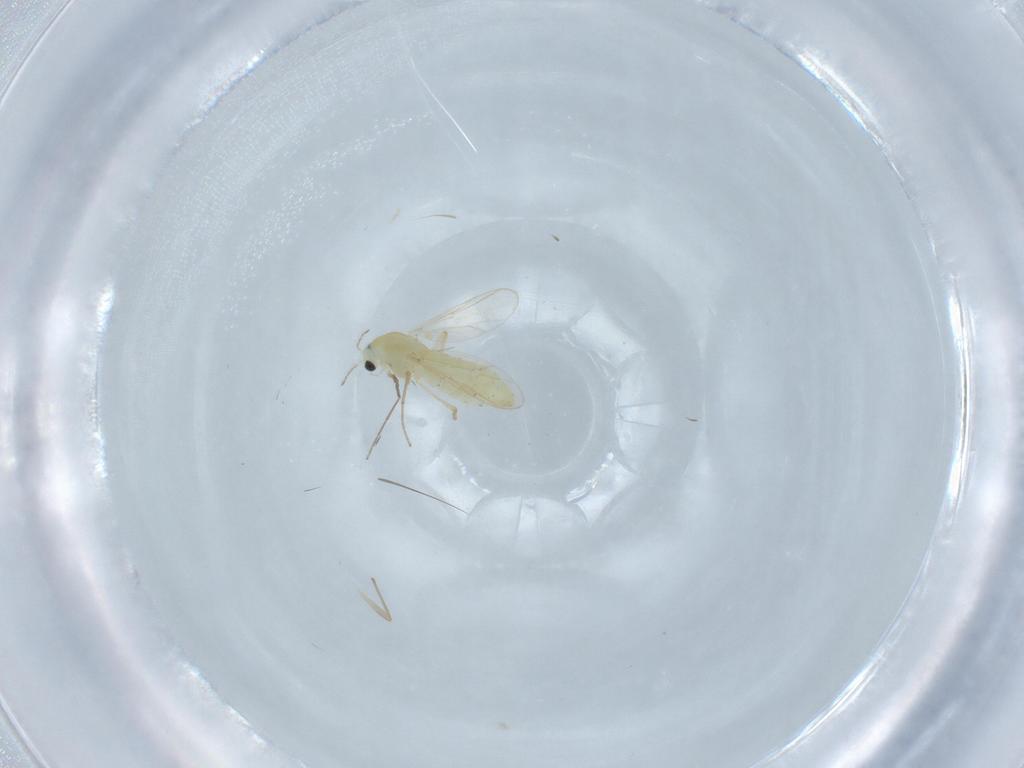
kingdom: Animalia
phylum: Arthropoda
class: Insecta
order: Diptera
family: Chironomidae
